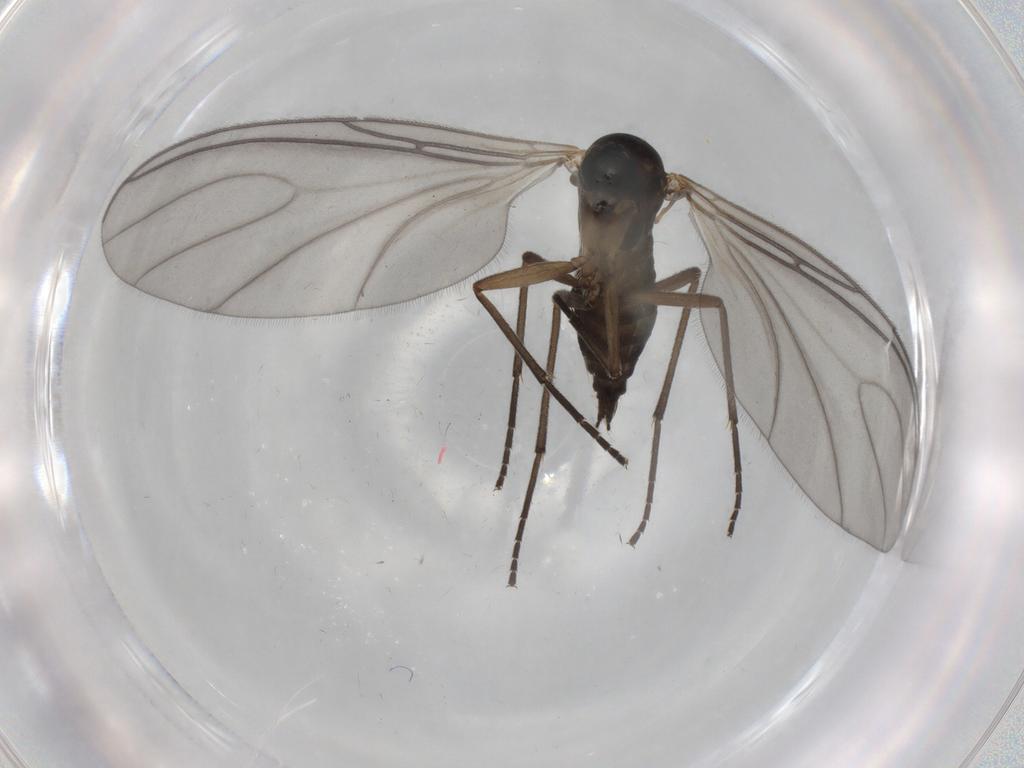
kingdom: Animalia
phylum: Arthropoda
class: Insecta
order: Diptera
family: Sciaridae
